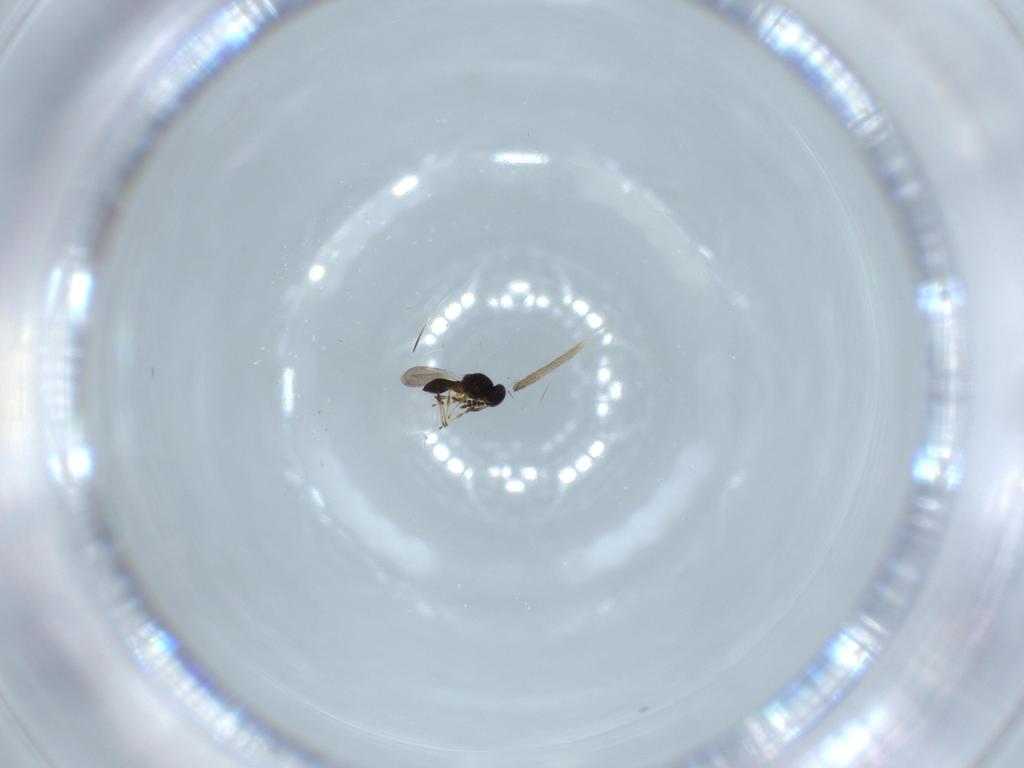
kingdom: Animalia
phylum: Arthropoda
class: Insecta
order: Hymenoptera
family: Platygastridae
